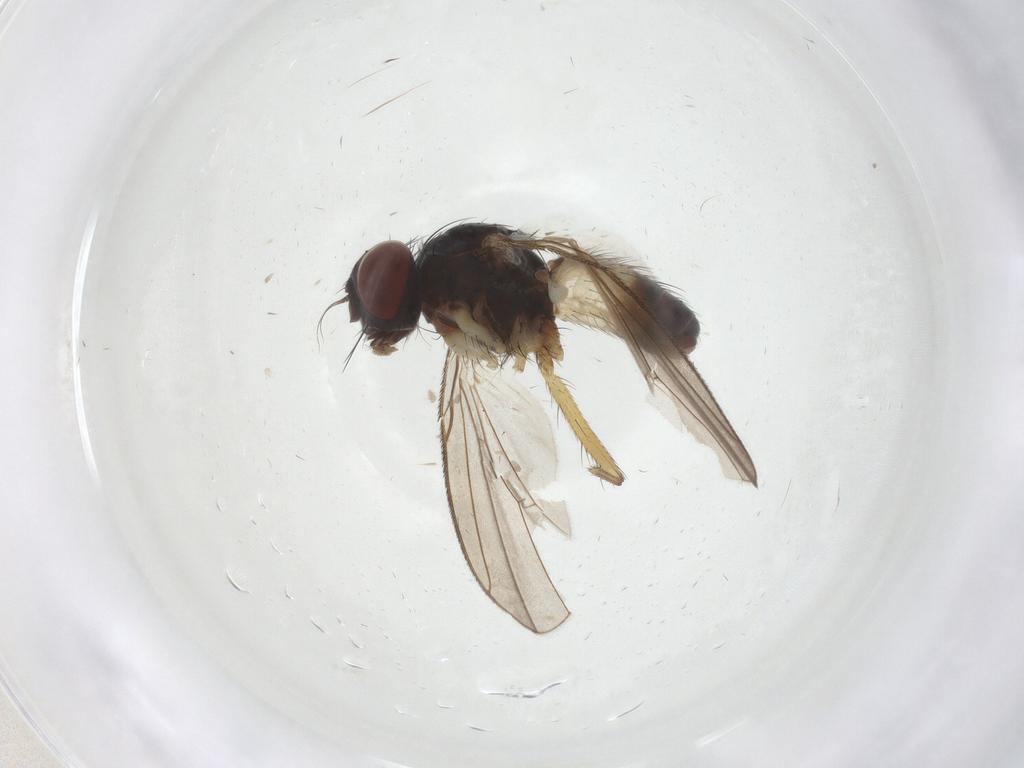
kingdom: Animalia
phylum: Arthropoda
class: Insecta
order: Diptera
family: Muscidae
